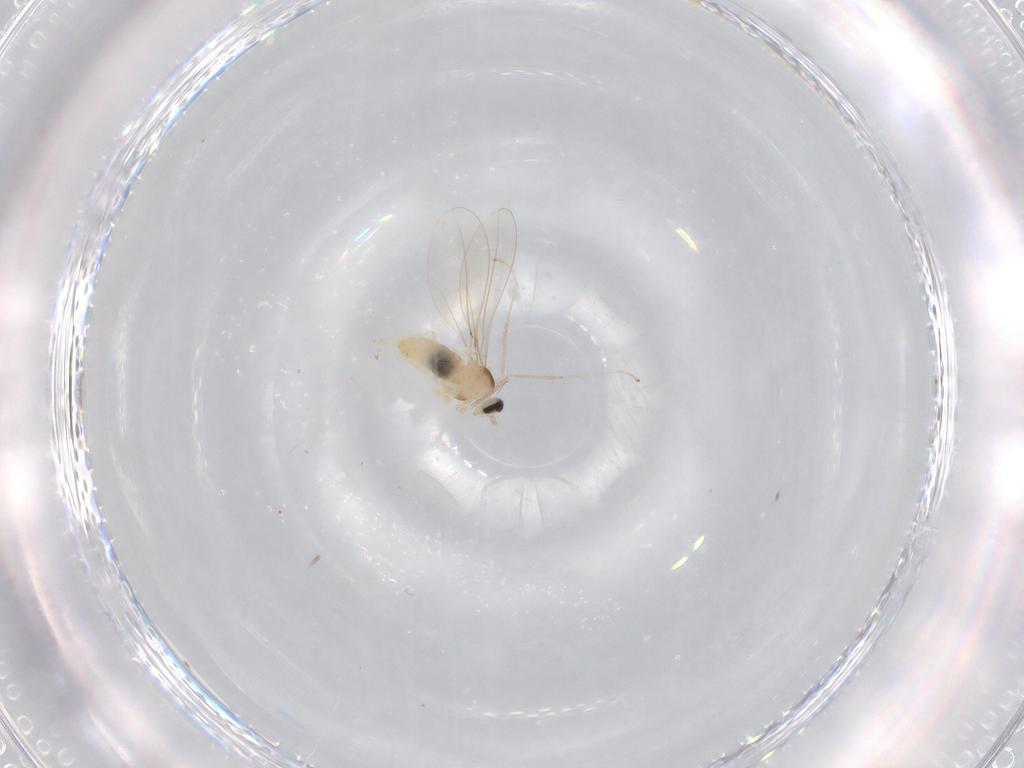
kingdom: Animalia
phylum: Arthropoda
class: Insecta
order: Diptera
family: Cecidomyiidae
